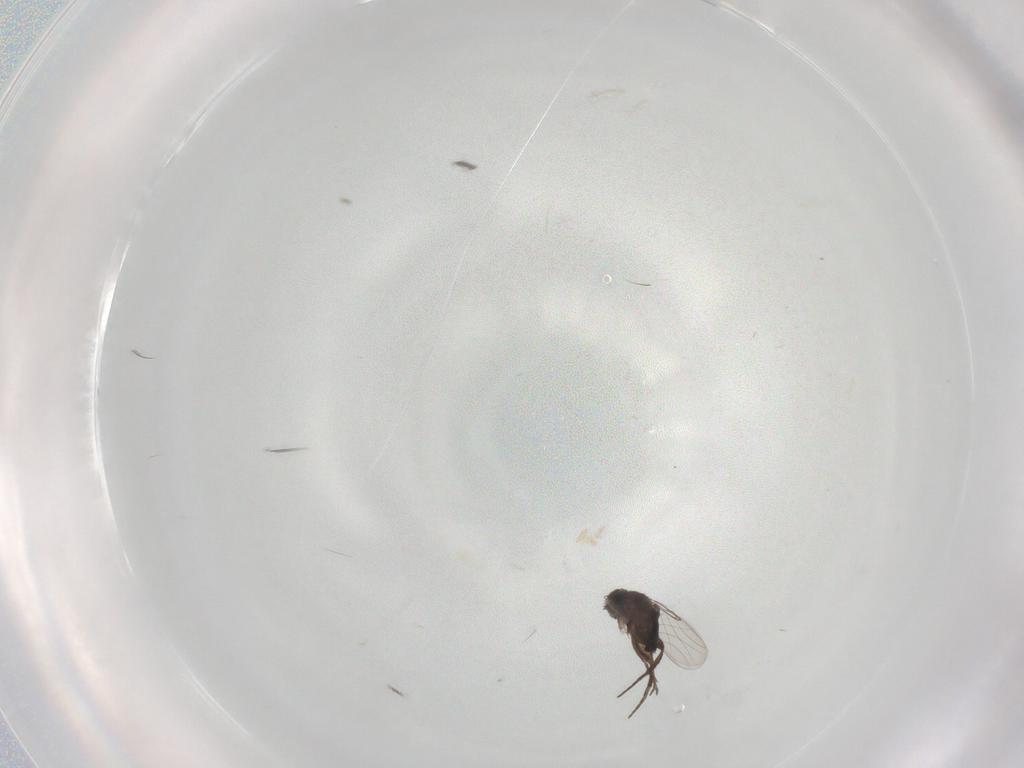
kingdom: Animalia
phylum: Arthropoda
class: Insecta
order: Diptera
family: Phoridae
